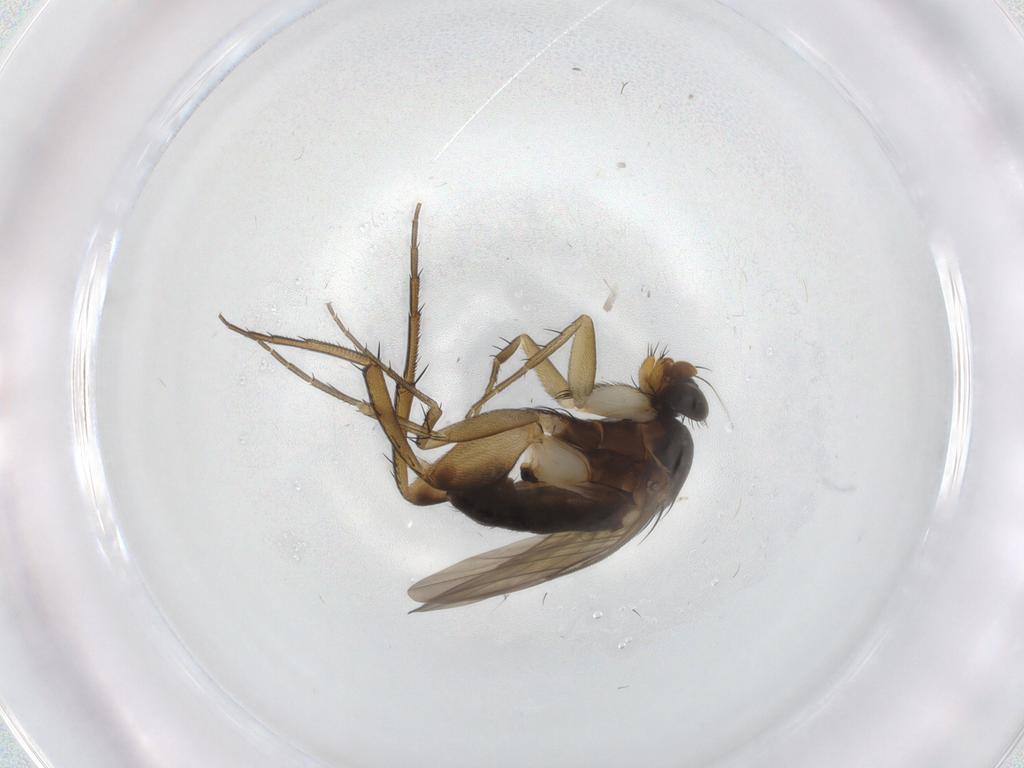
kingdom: Animalia
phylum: Arthropoda
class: Insecta
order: Diptera
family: Phoridae
